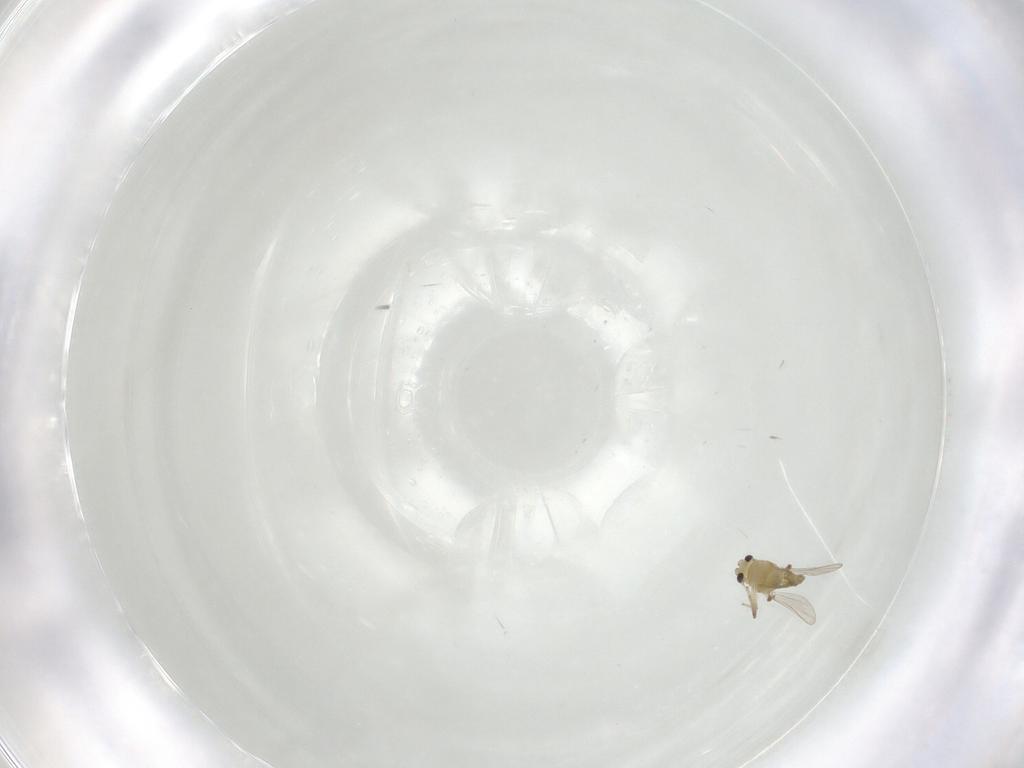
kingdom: Animalia
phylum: Arthropoda
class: Insecta
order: Diptera
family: Chironomidae
